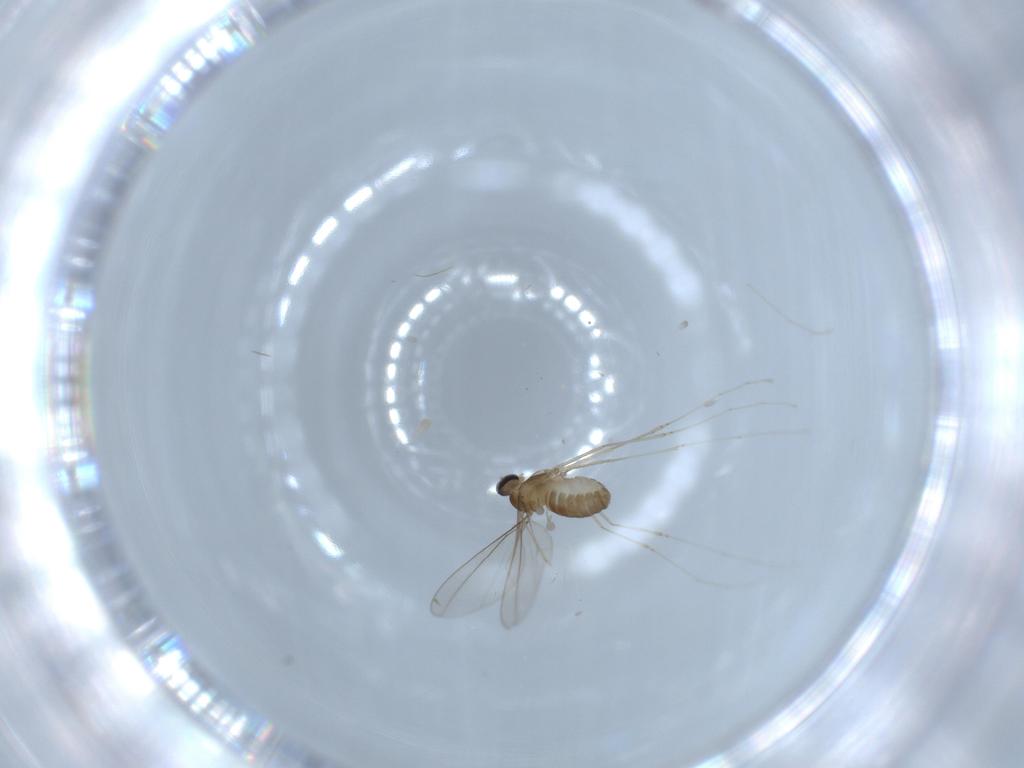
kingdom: Animalia
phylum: Arthropoda
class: Insecta
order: Diptera
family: Cecidomyiidae
